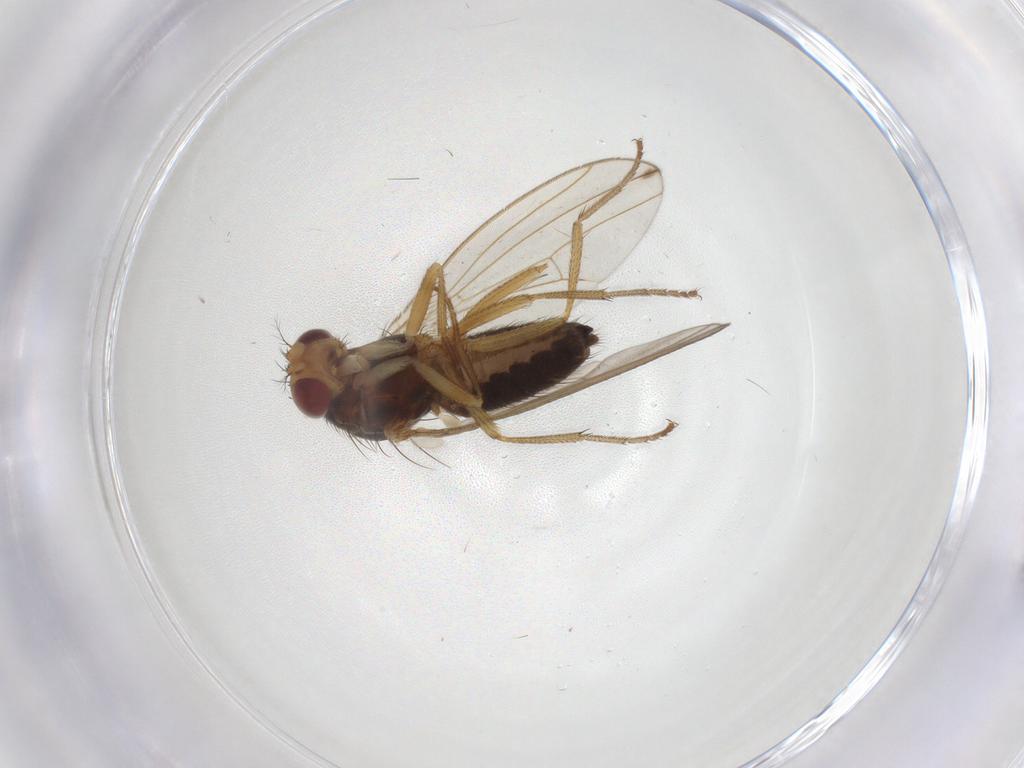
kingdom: Animalia
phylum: Arthropoda
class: Insecta
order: Diptera
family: Drosophilidae
